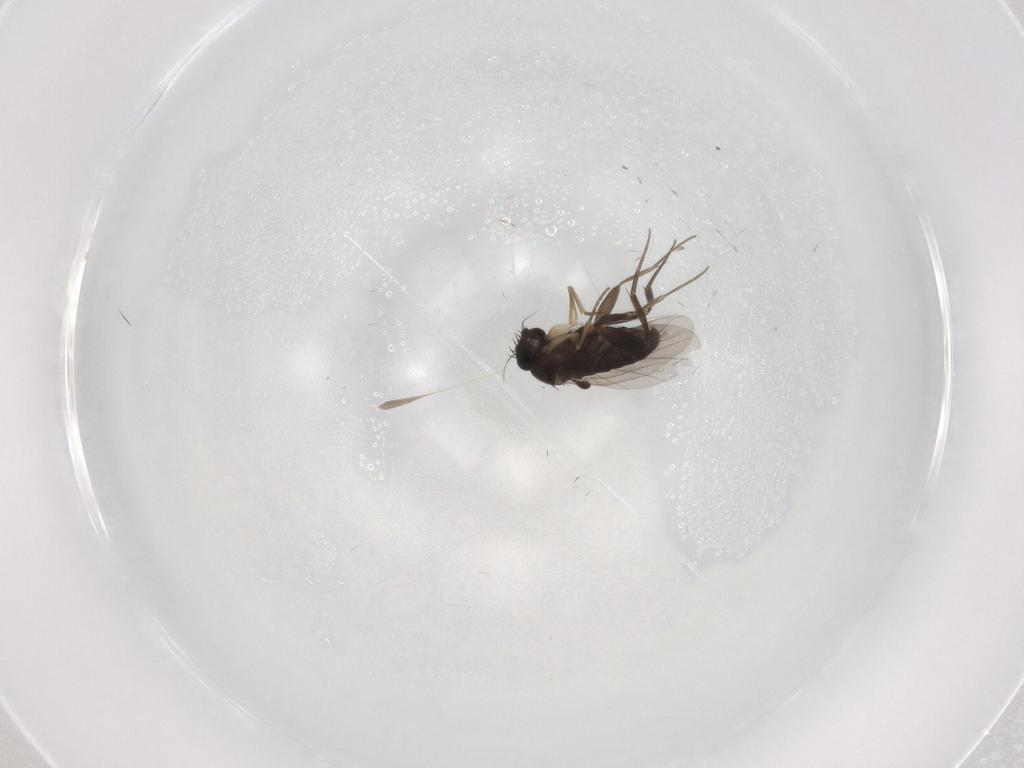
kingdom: Animalia
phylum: Arthropoda
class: Insecta
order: Diptera
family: Phoridae
